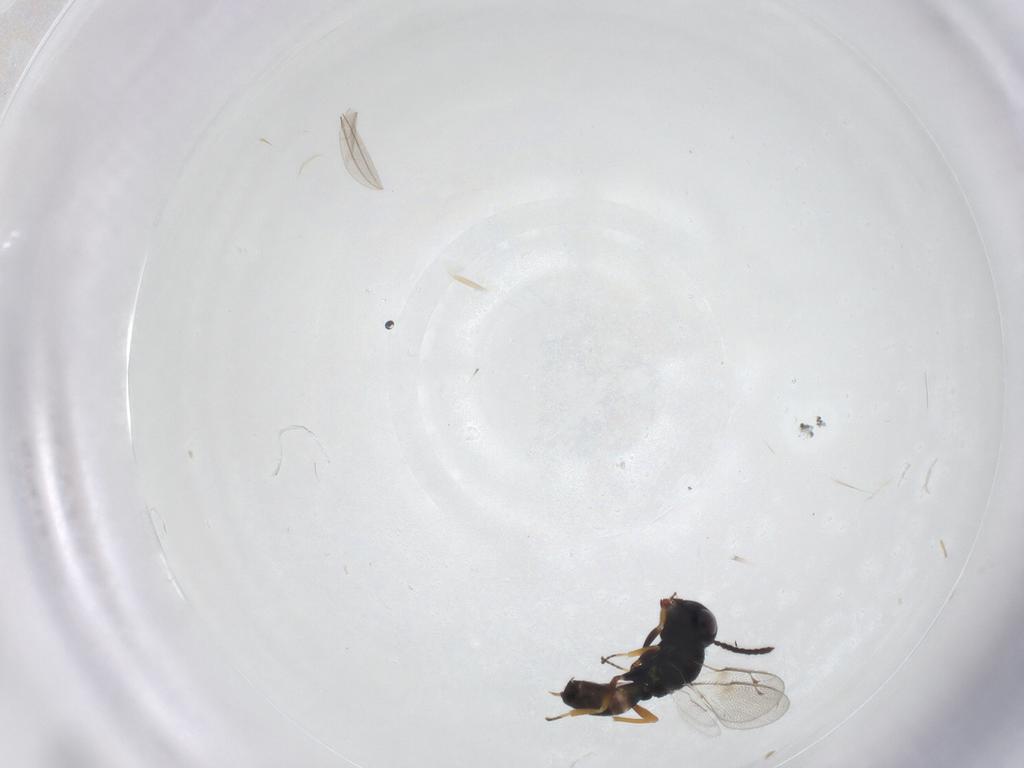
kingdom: Animalia
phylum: Arthropoda
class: Insecta
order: Hymenoptera
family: Pteromalidae
